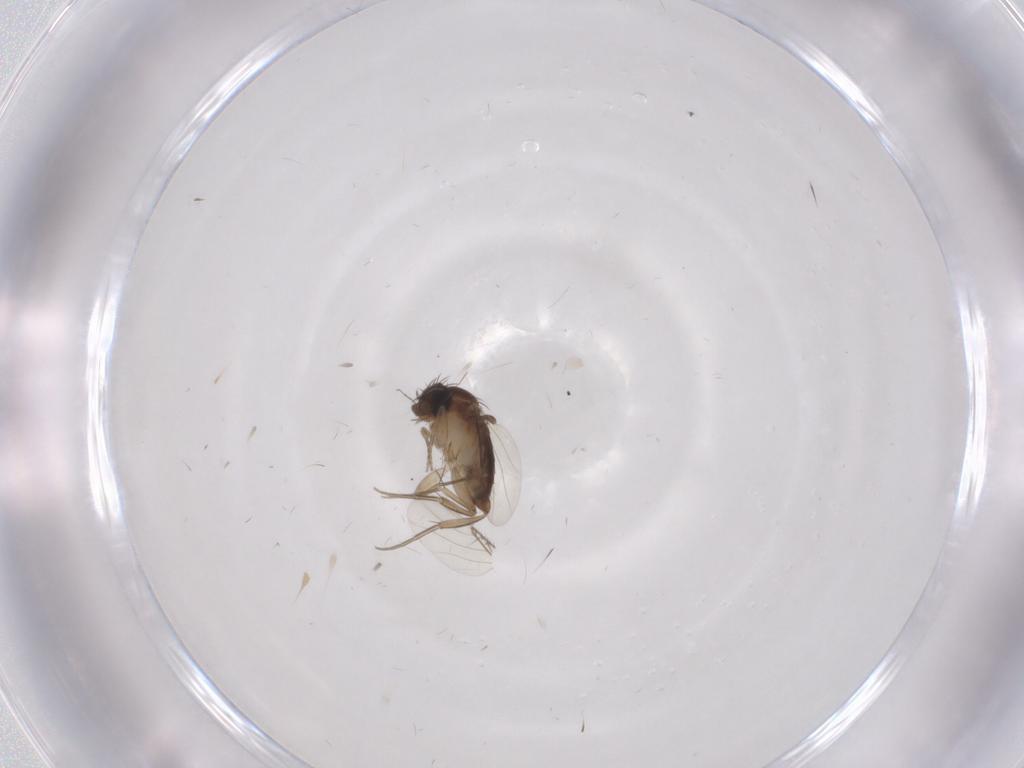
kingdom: Animalia
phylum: Arthropoda
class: Insecta
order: Diptera
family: Phoridae
